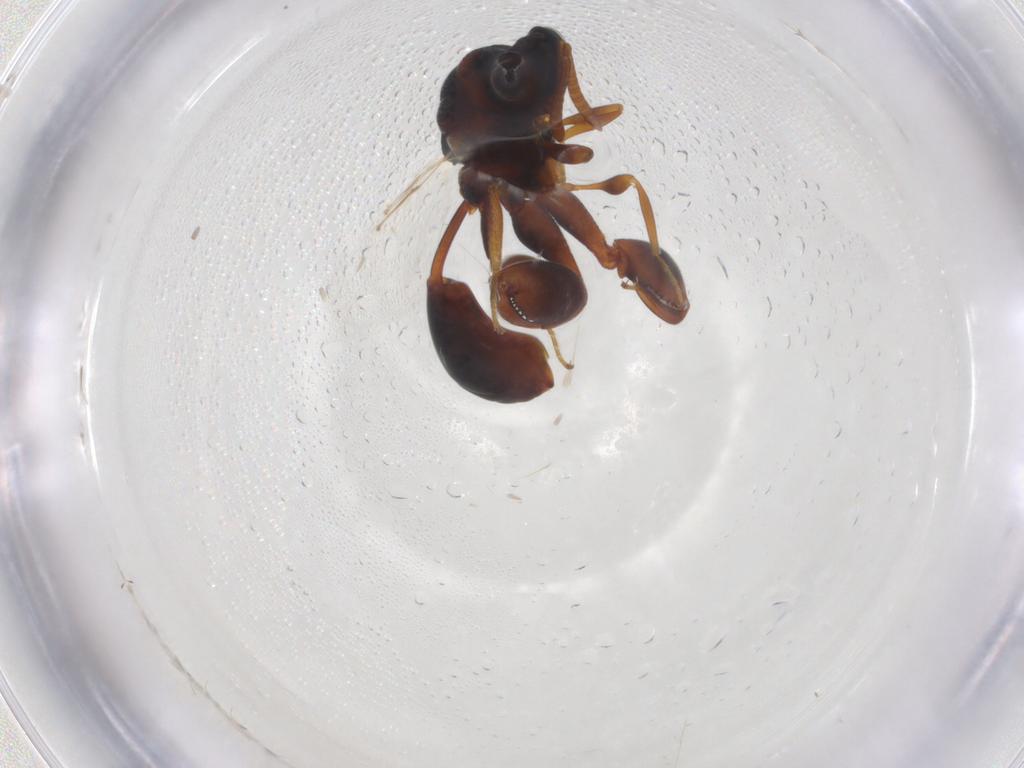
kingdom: Animalia
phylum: Arthropoda
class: Insecta
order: Hymenoptera
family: Chalcididae
